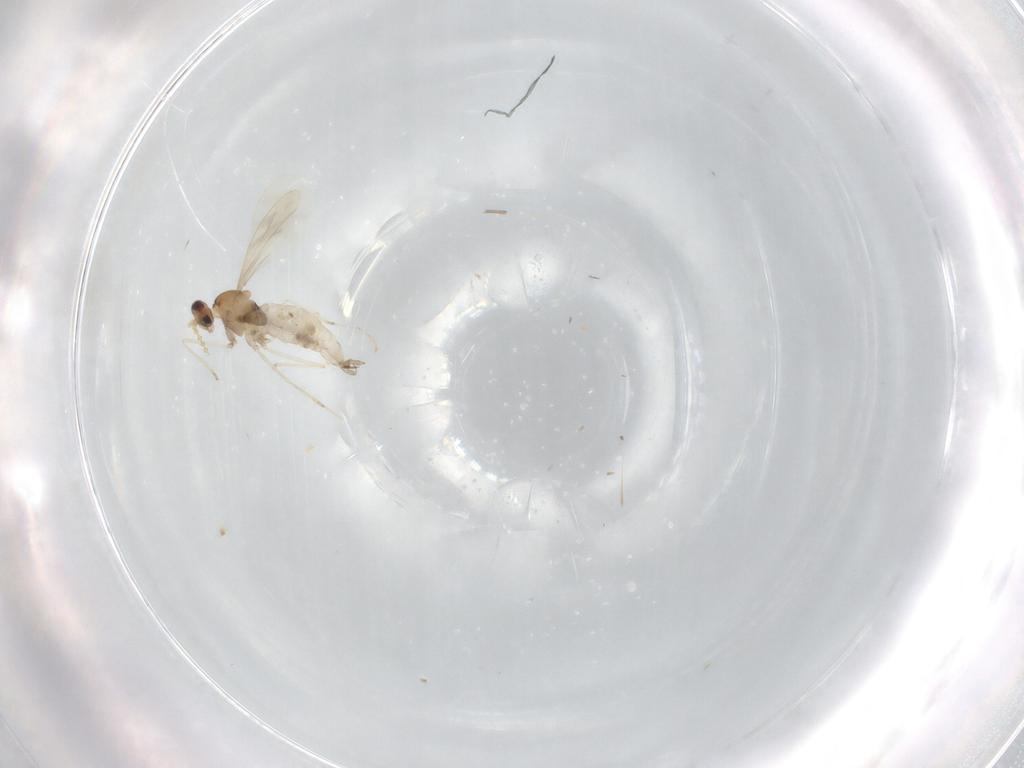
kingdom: Animalia
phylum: Arthropoda
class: Insecta
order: Diptera
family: Cecidomyiidae
